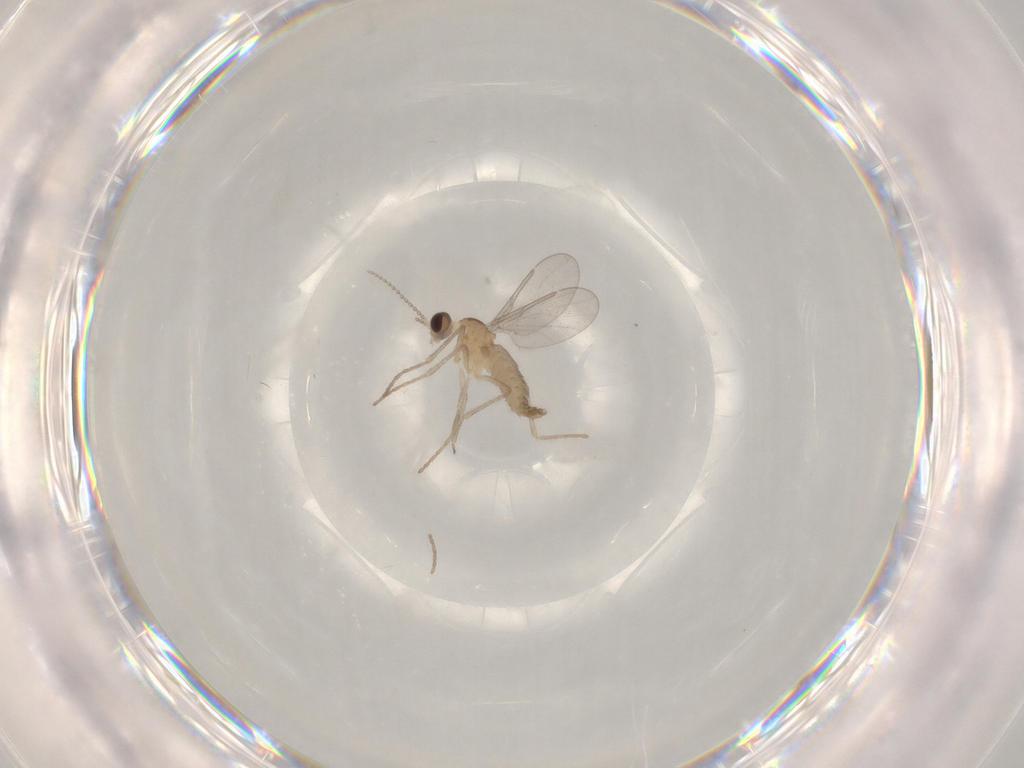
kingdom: Animalia
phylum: Arthropoda
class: Insecta
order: Diptera
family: Cecidomyiidae
